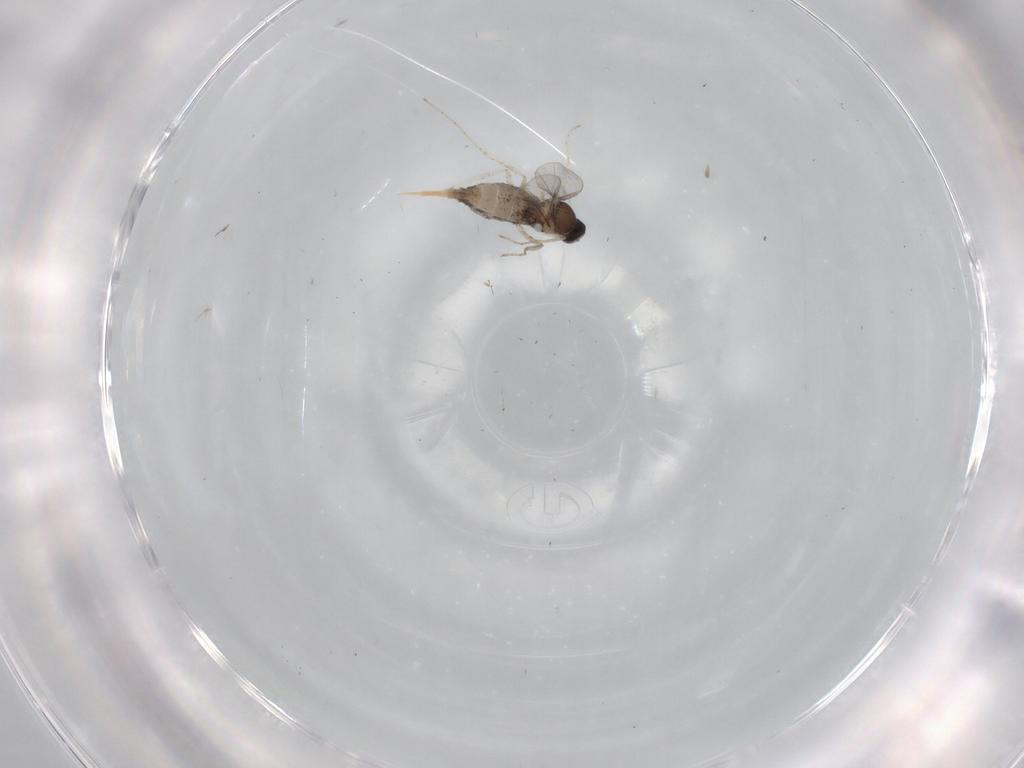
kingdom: Animalia
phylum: Arthropoda
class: Insecta
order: Diptera
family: Cecidomyiidae
